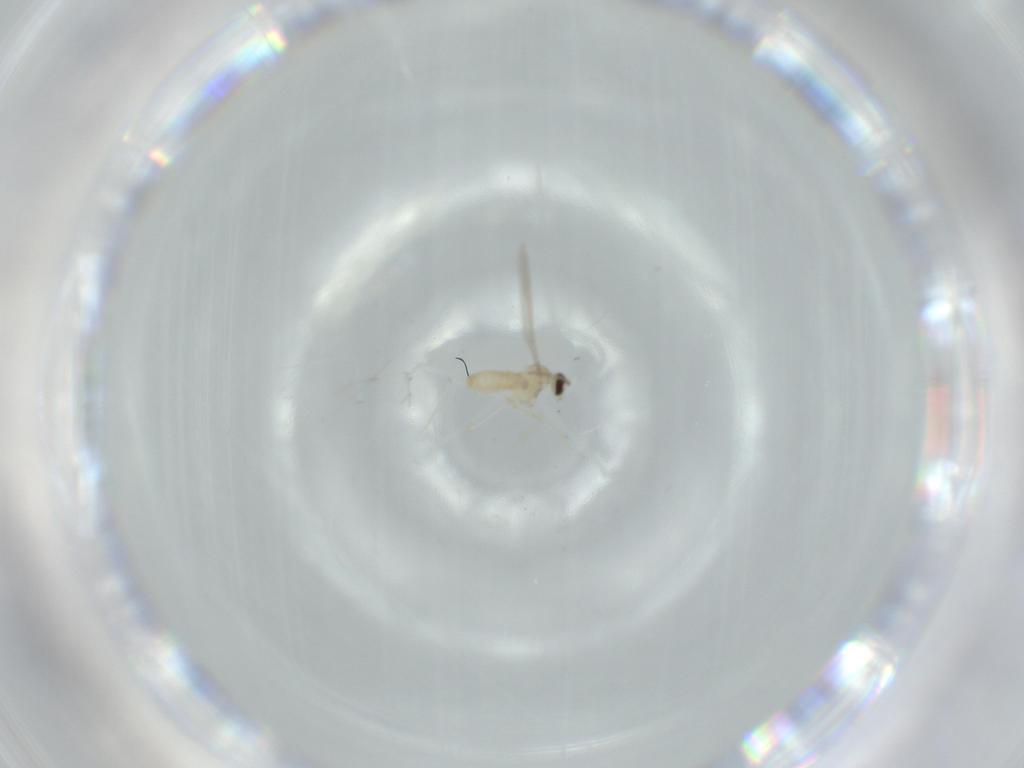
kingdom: Animalia
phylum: Arthropoda
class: Insecta
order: Diptera
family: Cecidomyiidae
